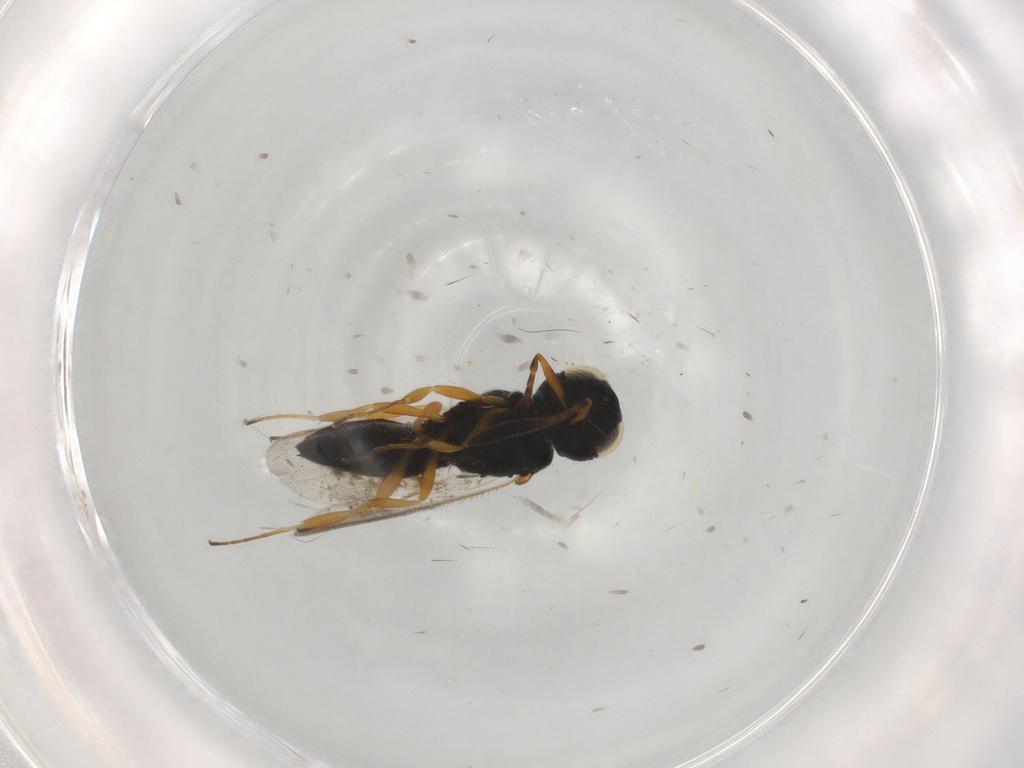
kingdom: Animalia
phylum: Arthropoda
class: Insecta
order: Hymenoptera
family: Scelionidae
